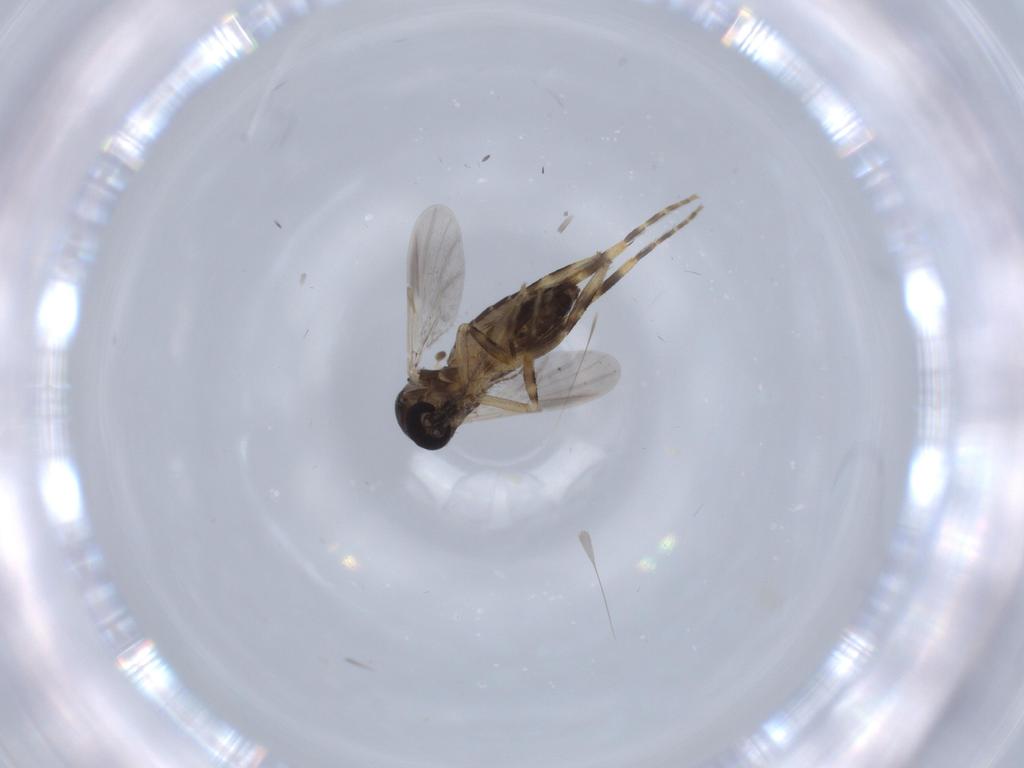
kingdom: Animalia
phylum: Arthropoda
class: Insecta
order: Diptera
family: Ceratopogonidae
